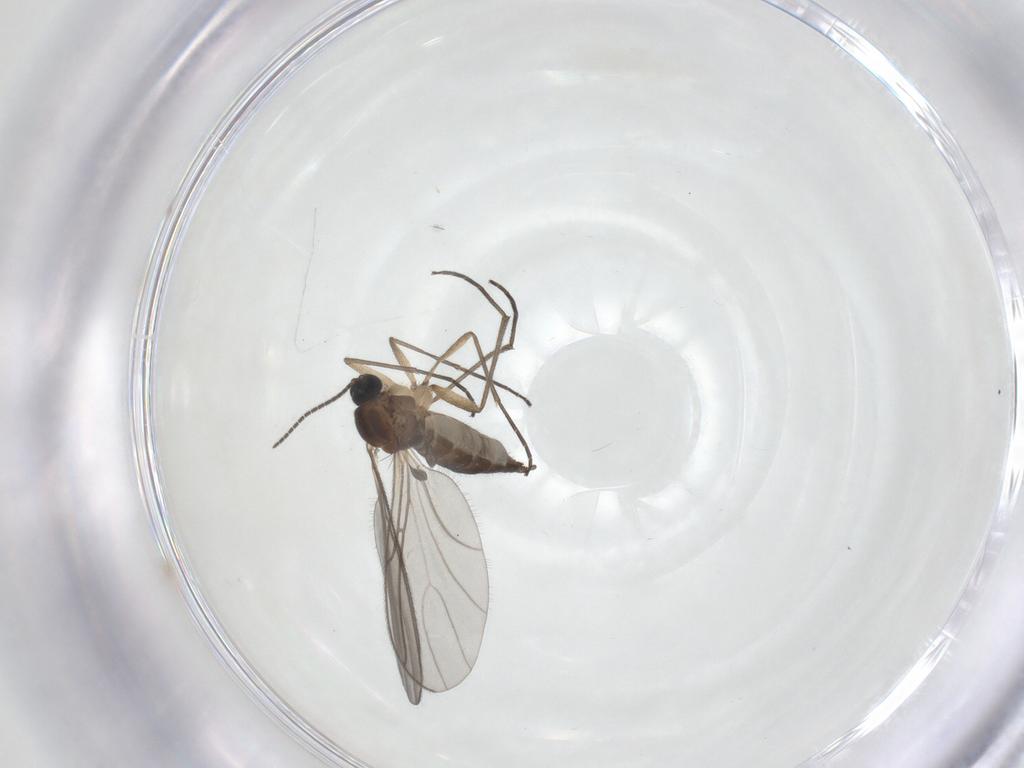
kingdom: Animalia
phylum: Arthropoda
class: Insecta
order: Diptera
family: Sciaridae
